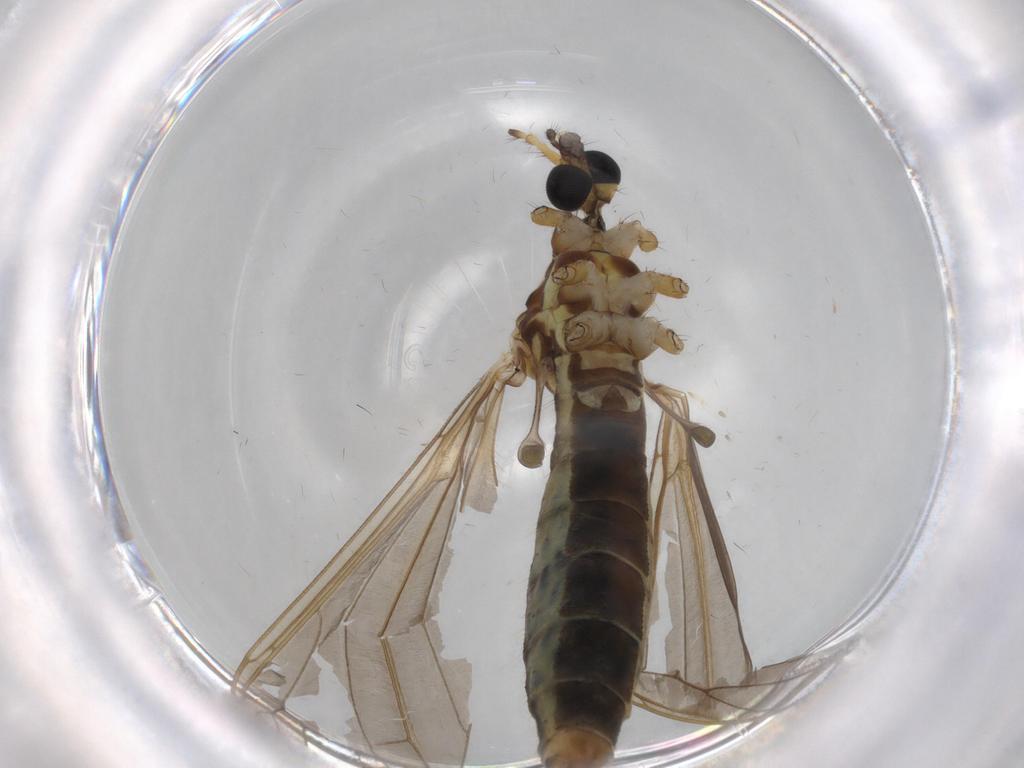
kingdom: Animalia
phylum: Arthropoda
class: Insecta
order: Diptera
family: Limoniidae
